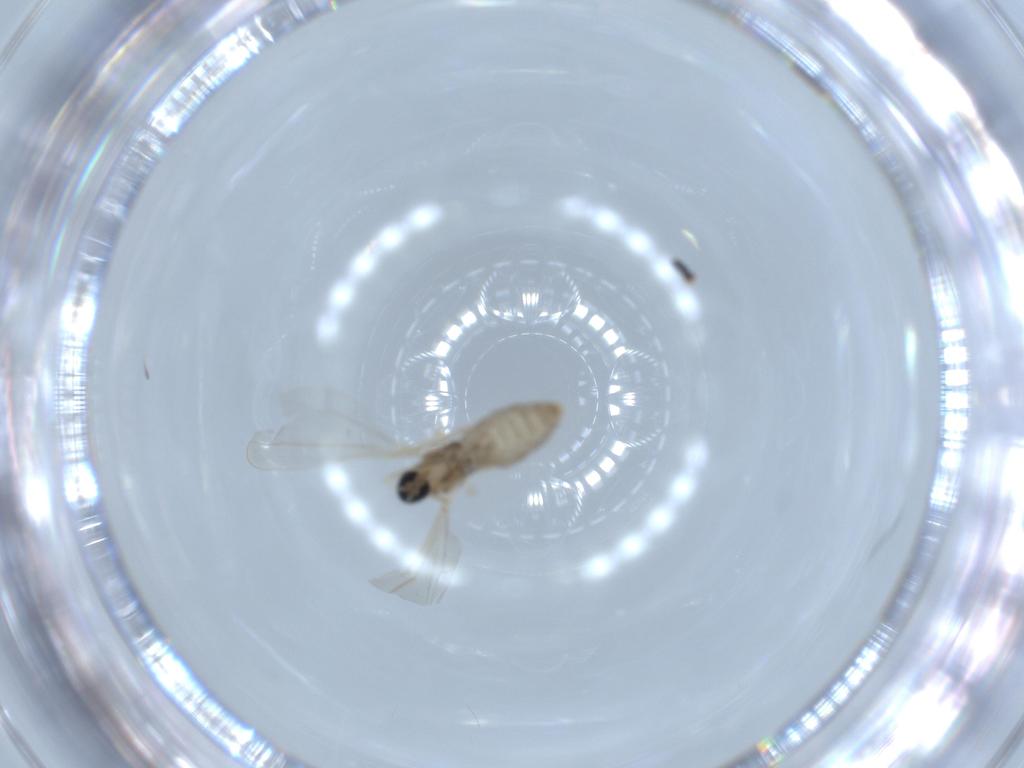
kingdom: Animalia
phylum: Arthropoda
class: Insecta
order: Diptera
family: Cecidomyiidae
